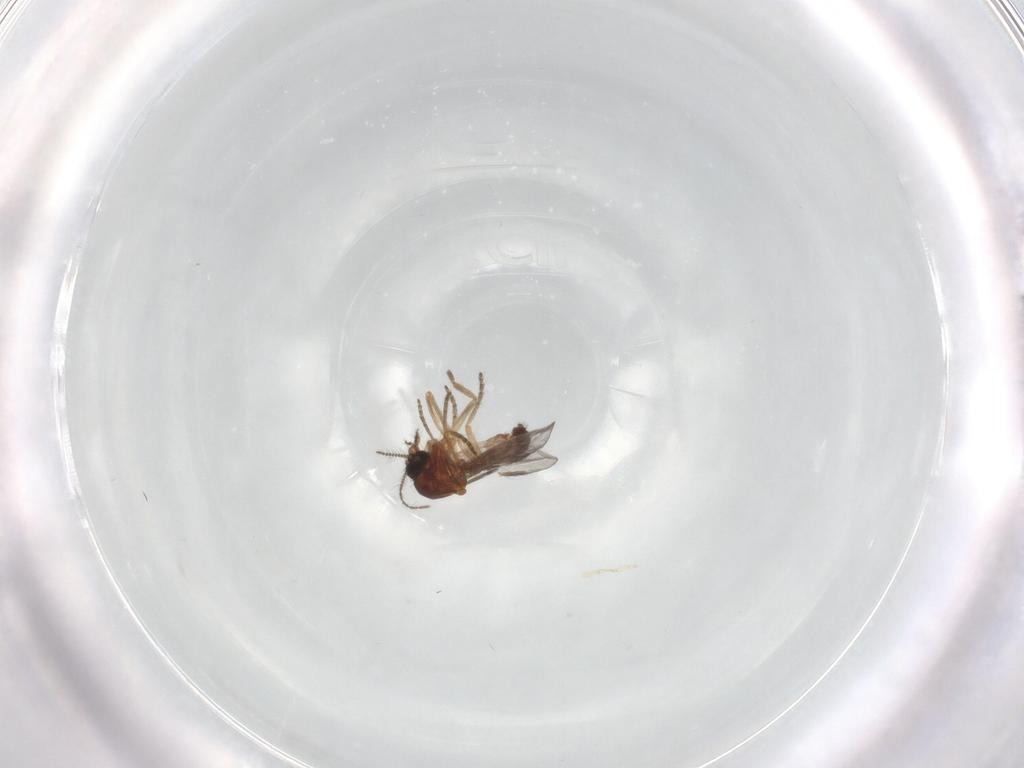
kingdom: Animalia
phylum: Arthropoda
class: Insecta
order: Diptera
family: Ceratopogonidae
